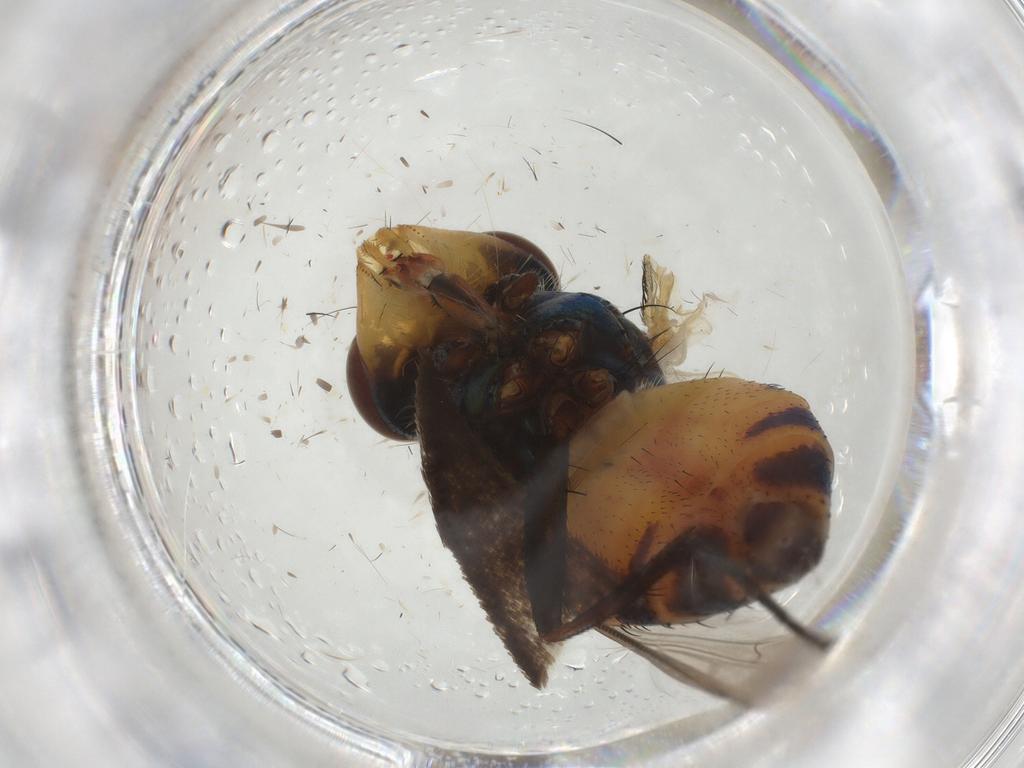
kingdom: Animalia
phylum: Arthropoda
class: Insecta
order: Diptera
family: Chironomidae
